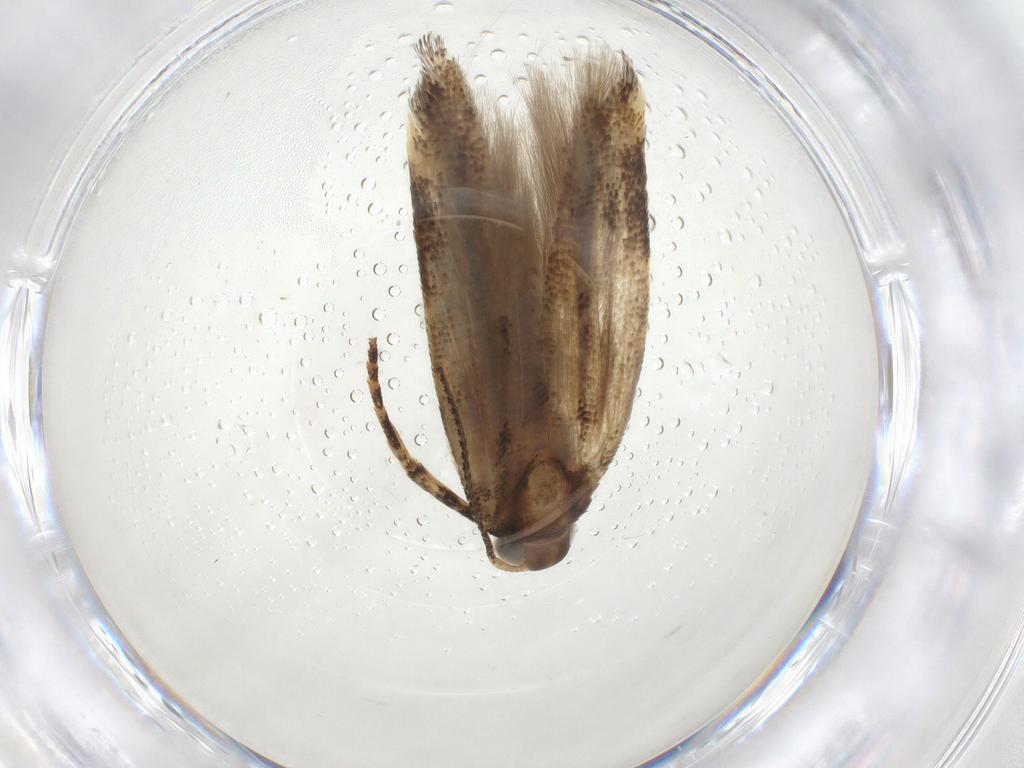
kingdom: Animalia
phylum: Arthropoda
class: Insecta
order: Lepidoptera
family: Gelechiidae
